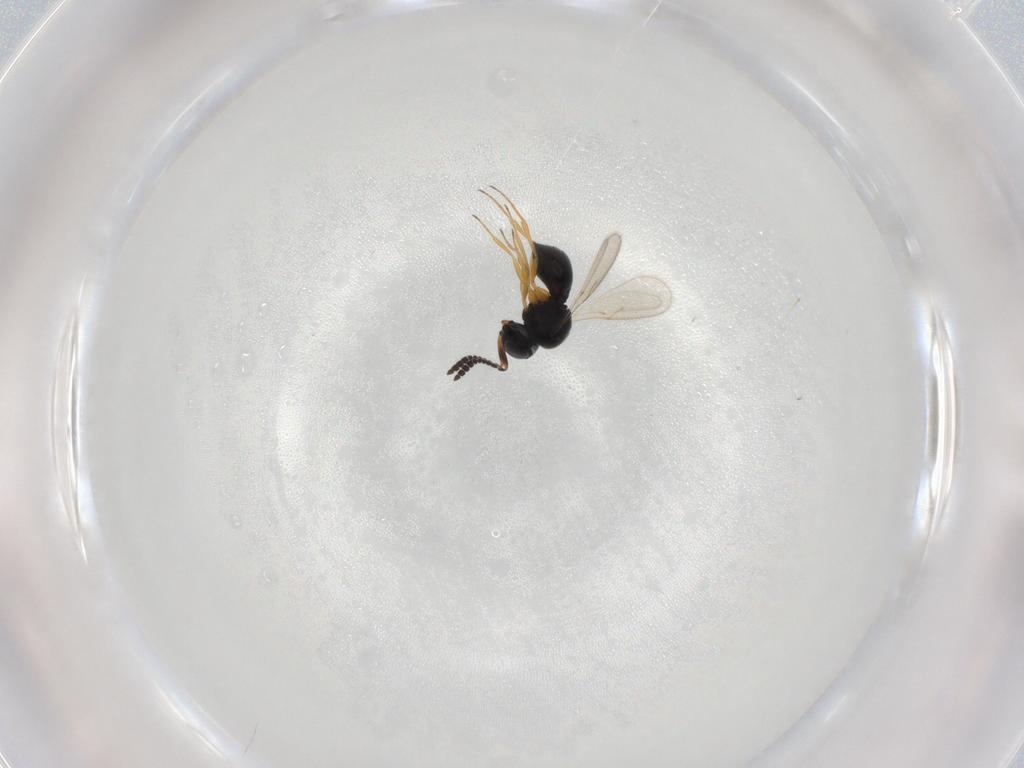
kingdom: Animalia
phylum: Arthropoda
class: Insecta
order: Hymenoptera
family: Scelionidae
